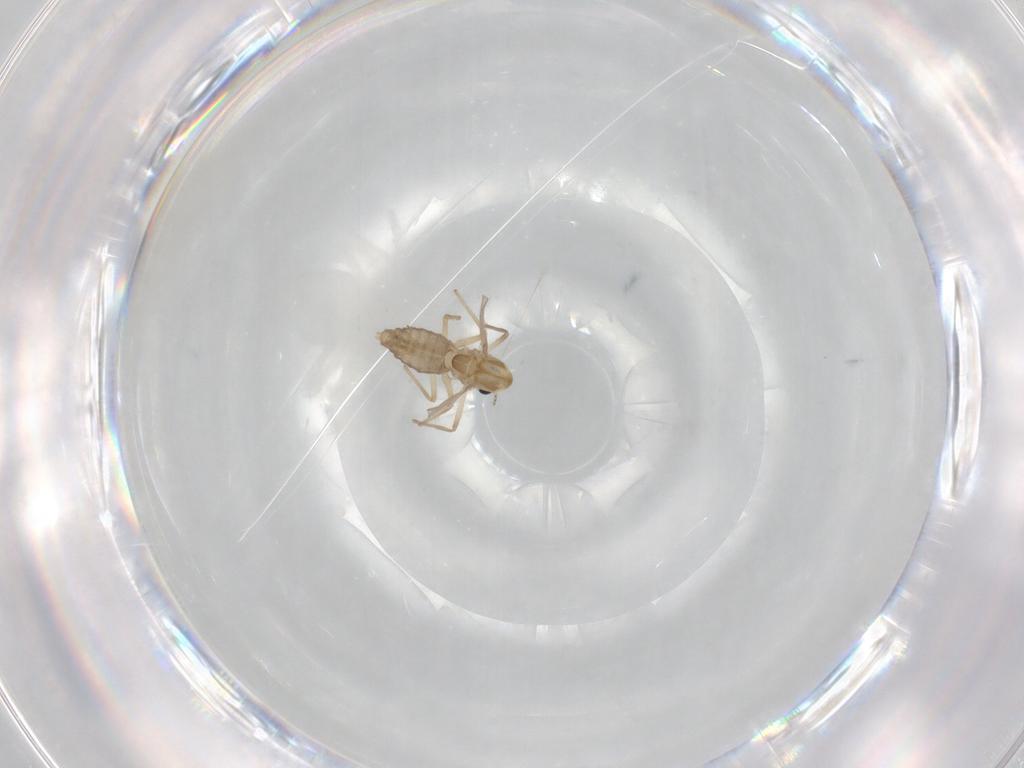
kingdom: Animalia
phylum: Arthropoda
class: Insecta
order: Diptera
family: Chironomidae
